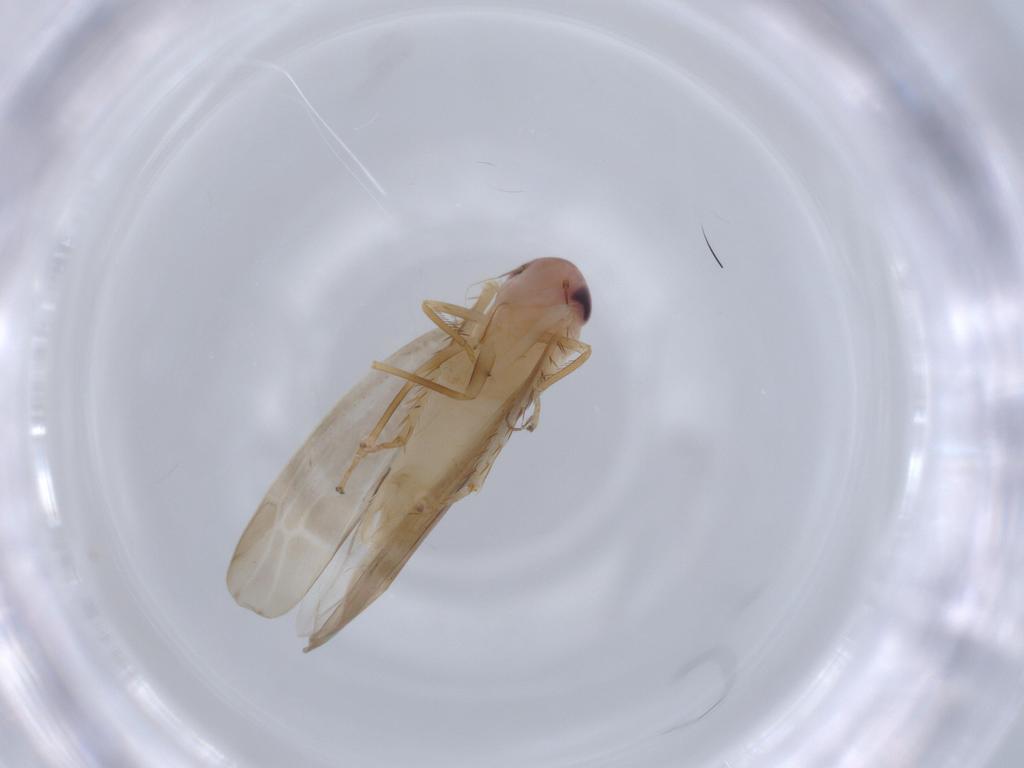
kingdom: Animalia
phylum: Arthropoda
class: Insecta
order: Hemiptera
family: Cicadellidae
